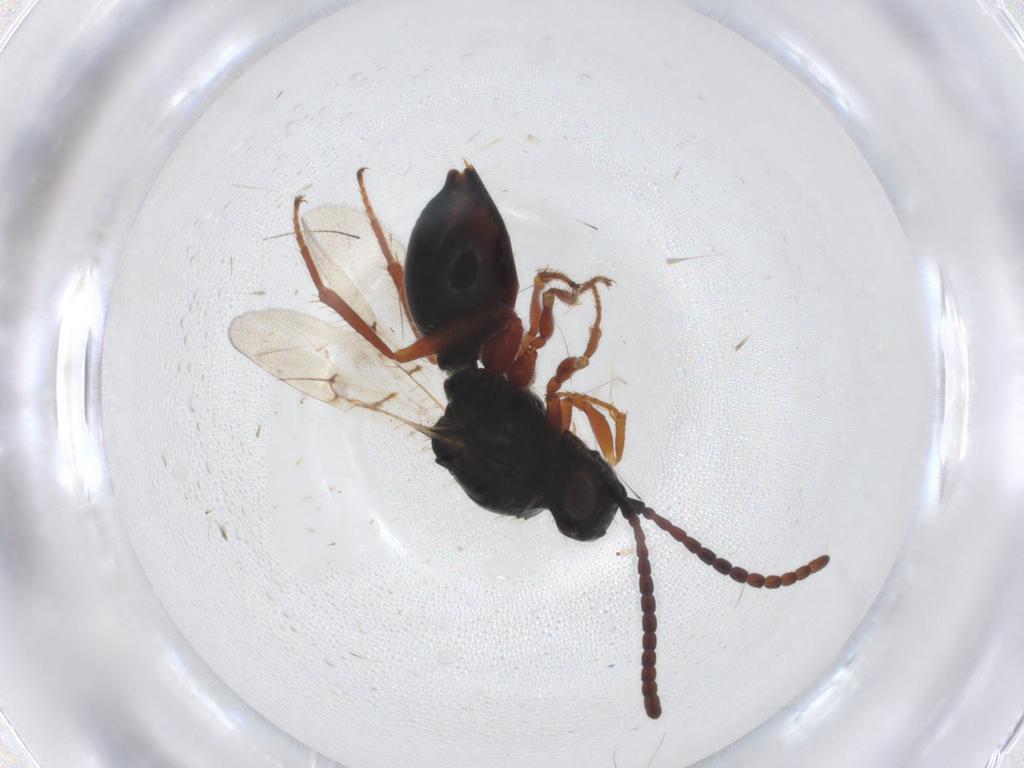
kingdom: Animalia
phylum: Arthropoda
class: Insecta
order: Hymenoptera
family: Figitidae
